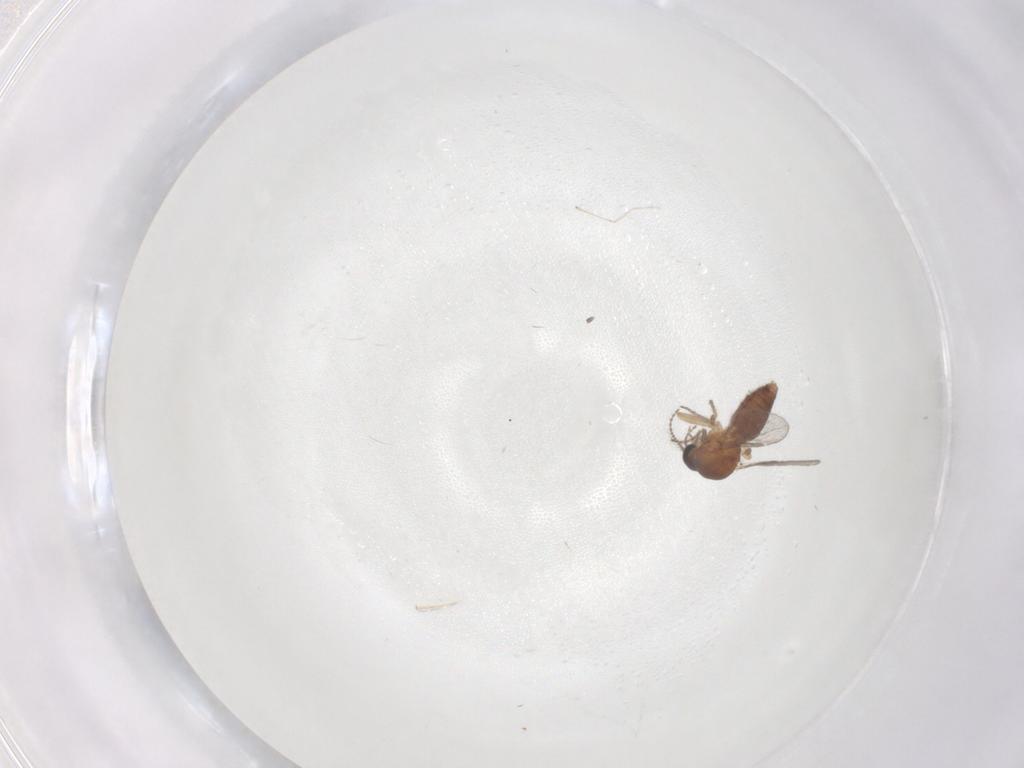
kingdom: Animalia
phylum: Arthropoda
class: Insecta
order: Diptera
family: Ceratopogonidae
